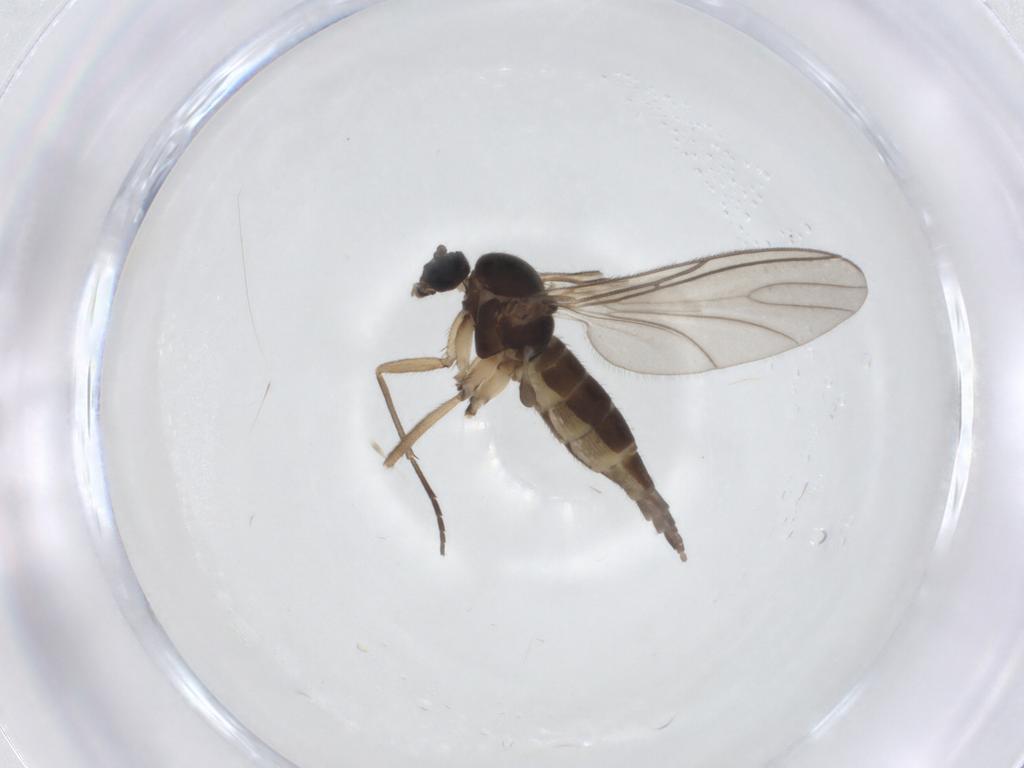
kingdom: Animalia
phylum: Arthropoda
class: Insecta
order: Diptera
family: Sciaridae
